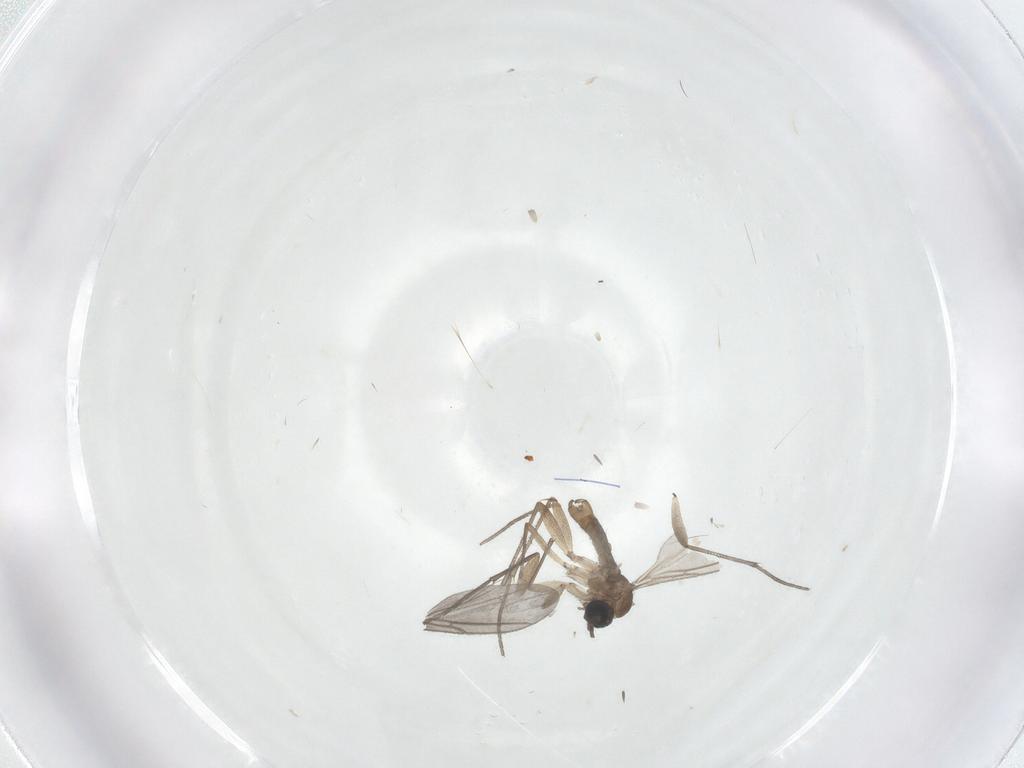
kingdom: Animalia
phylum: Arthropoda
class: Insecta
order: Diptera
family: Sciaridae
